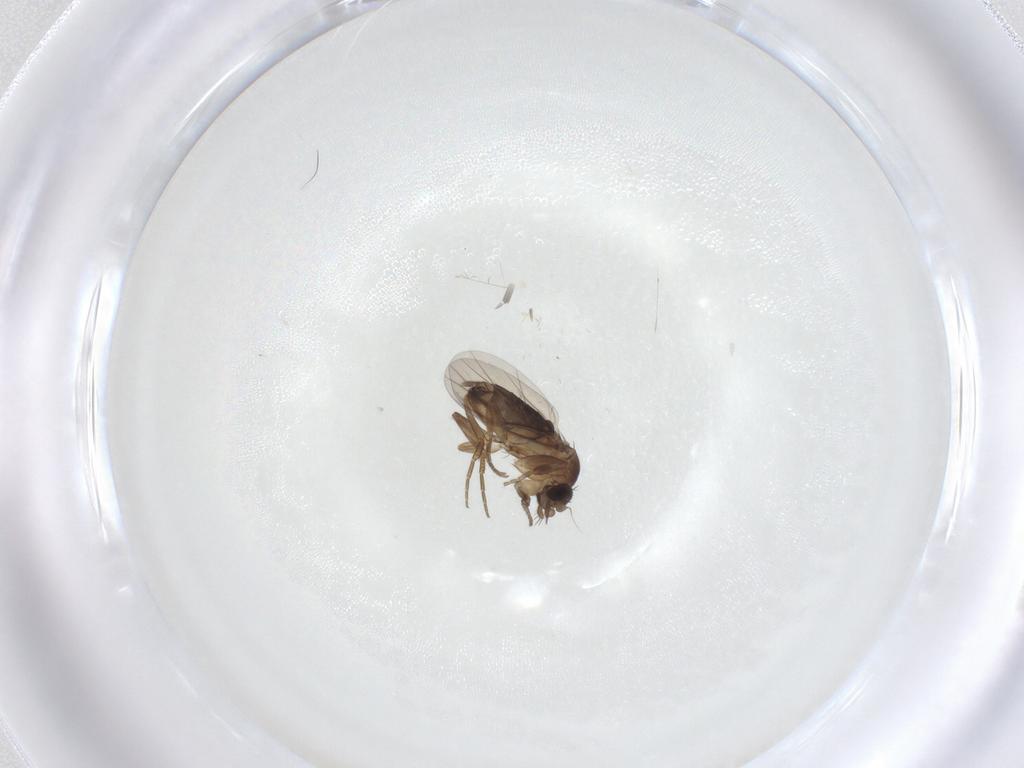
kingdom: Animalia
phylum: Arthropoda
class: Insecta
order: Diptera
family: Phoridae
